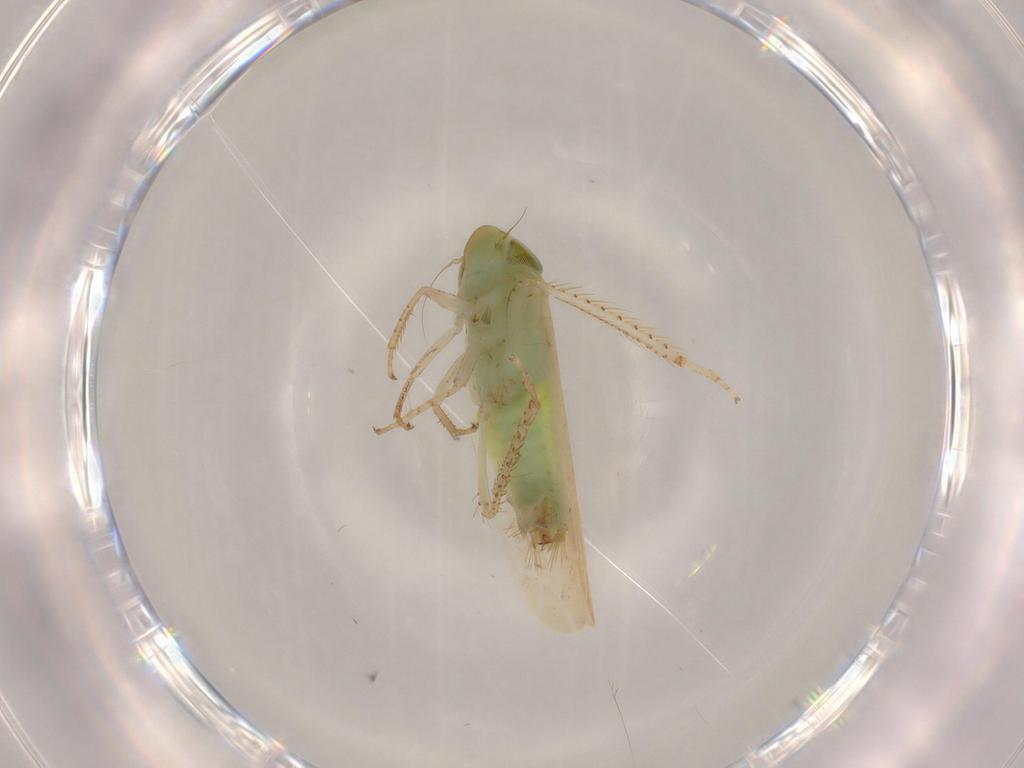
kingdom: Animalia
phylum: Arthropoda
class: Insecta
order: Hemiptera
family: Cicadellidae
